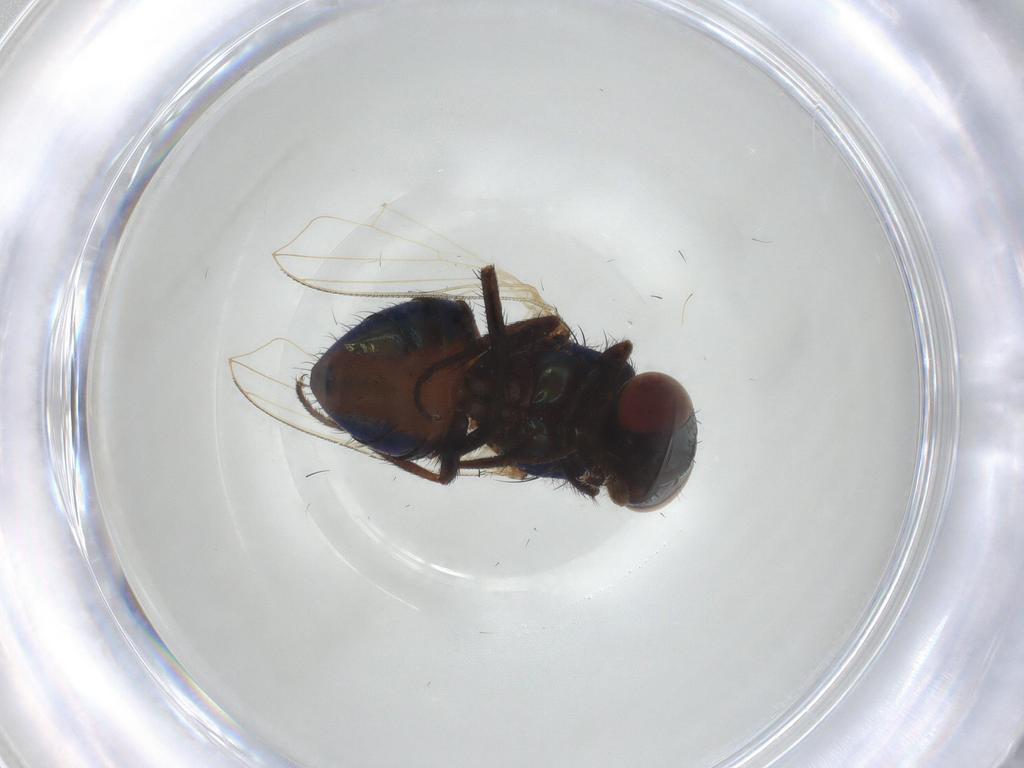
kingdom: Animalia
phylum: Arthropoda
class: Insecta
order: Diptera
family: Muscidae
